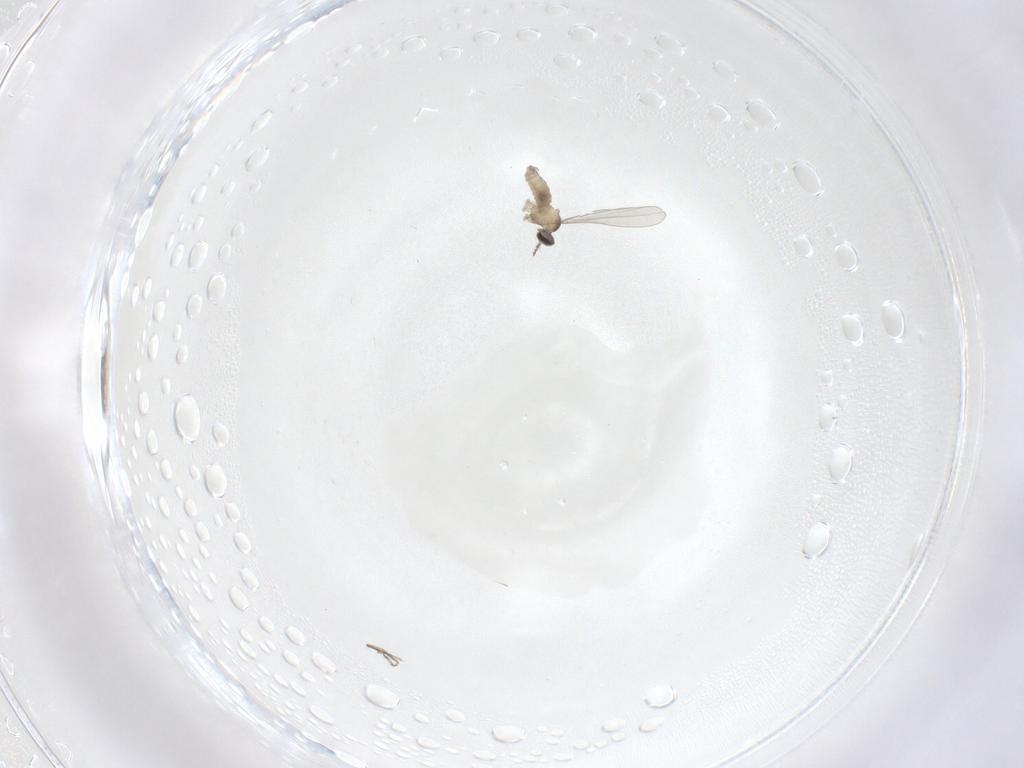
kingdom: Animalia
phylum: Arthropoda
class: Insecta
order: Diptera
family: Cecidomyiidae
